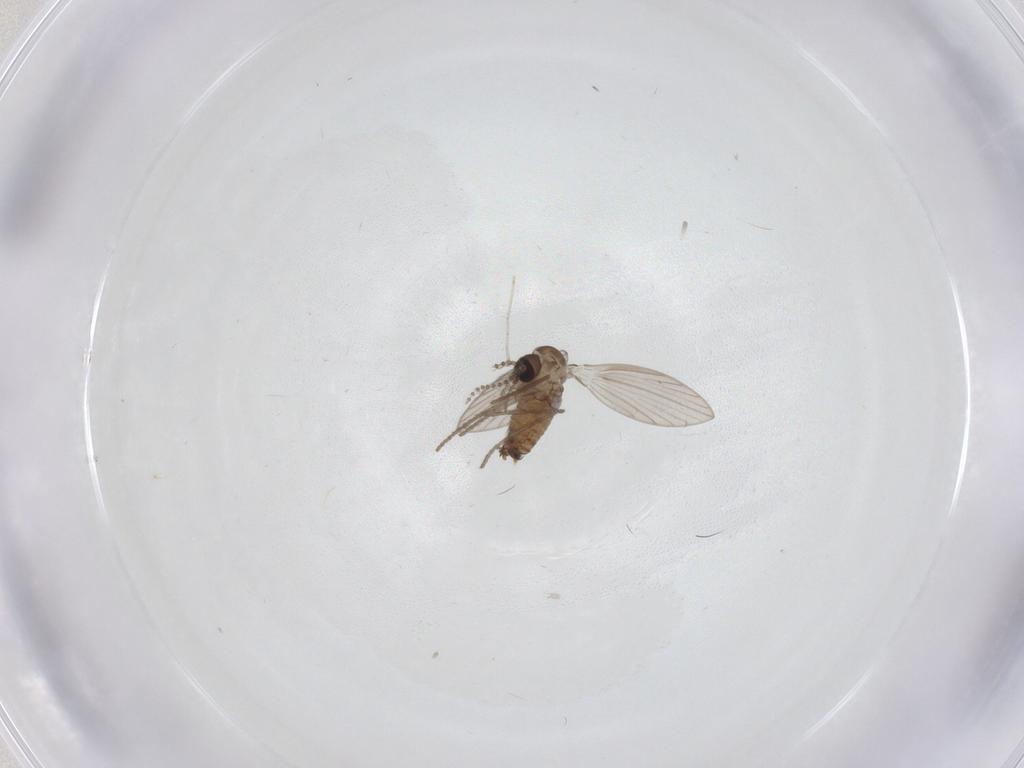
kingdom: Animalia
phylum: Arthropoda
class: Insecta
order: Diptera
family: Psychodidae
